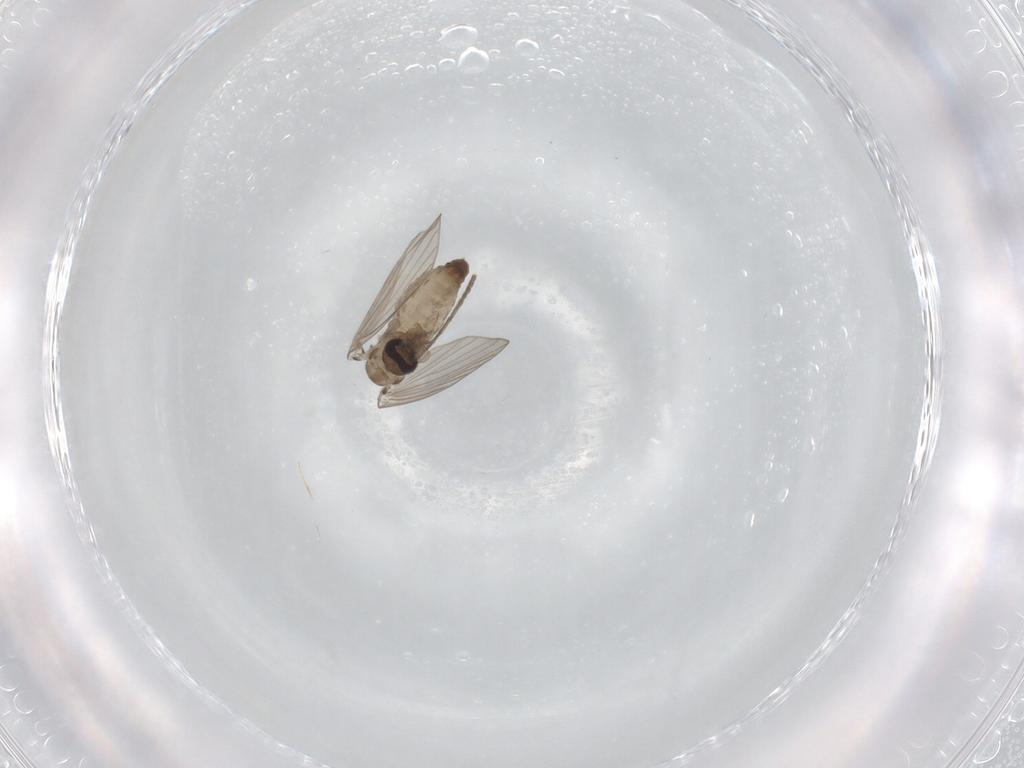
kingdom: Animalia
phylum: Arthropoda
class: Insecta
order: Diptera
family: Psychodidae
